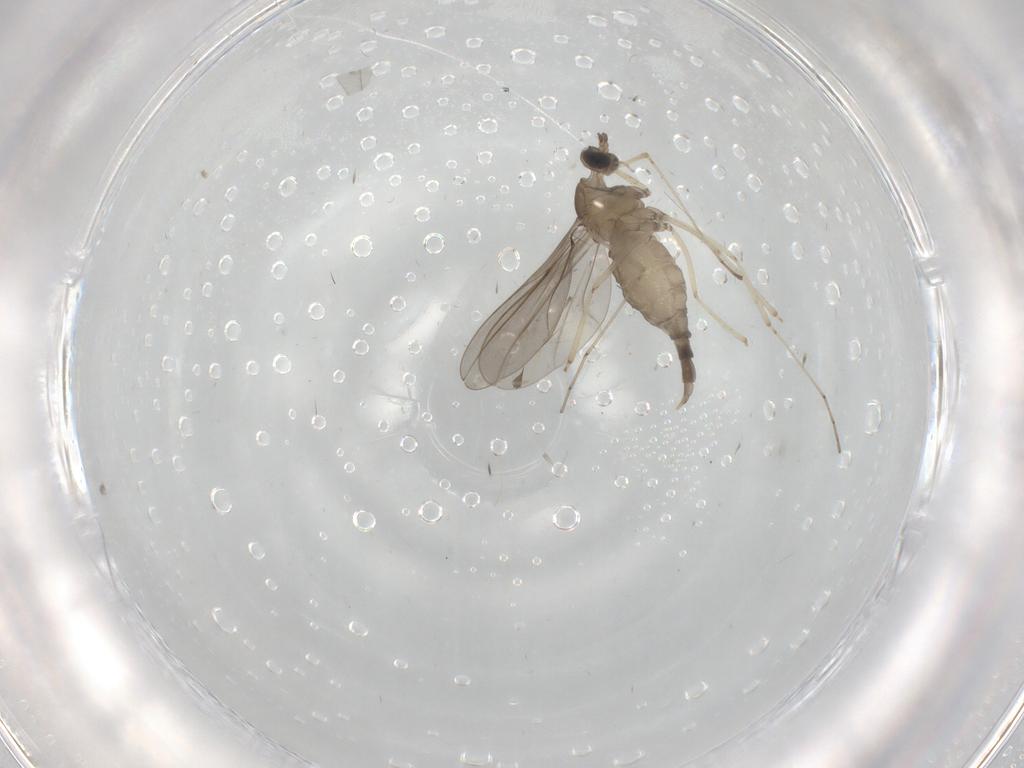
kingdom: Animalia
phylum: Arthropoda
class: Insecta
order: Diptera
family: Cecidomyiidae
